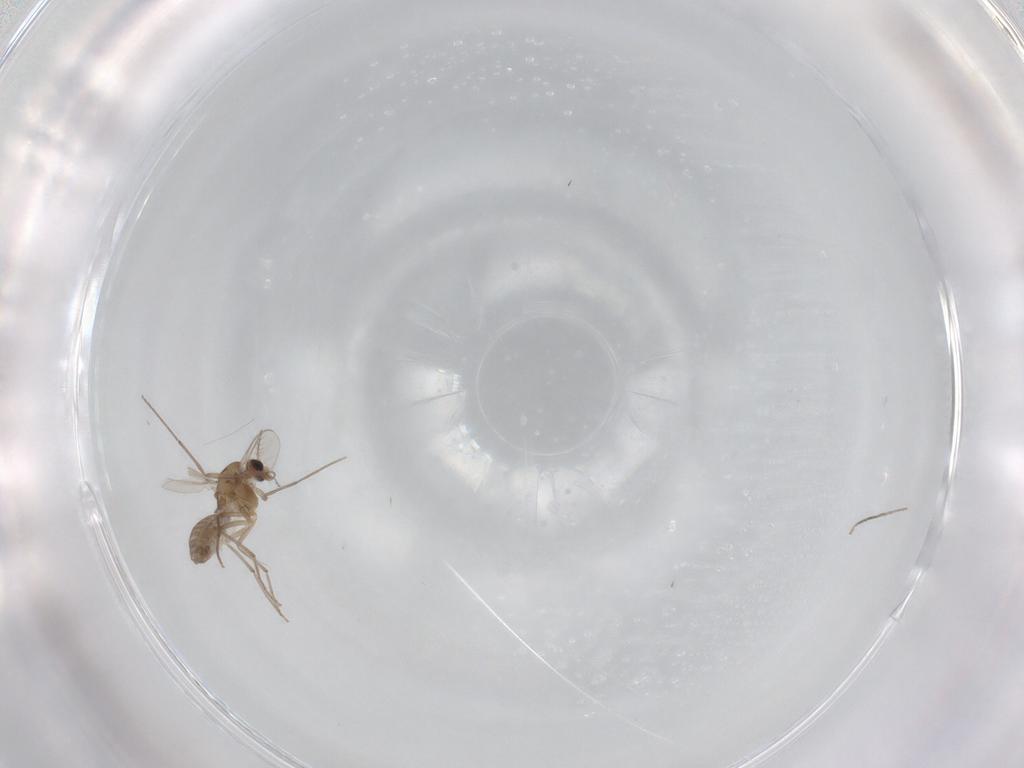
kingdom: Animalia
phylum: Arthropoda
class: Insecta
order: Diptera
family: Chironomidae
